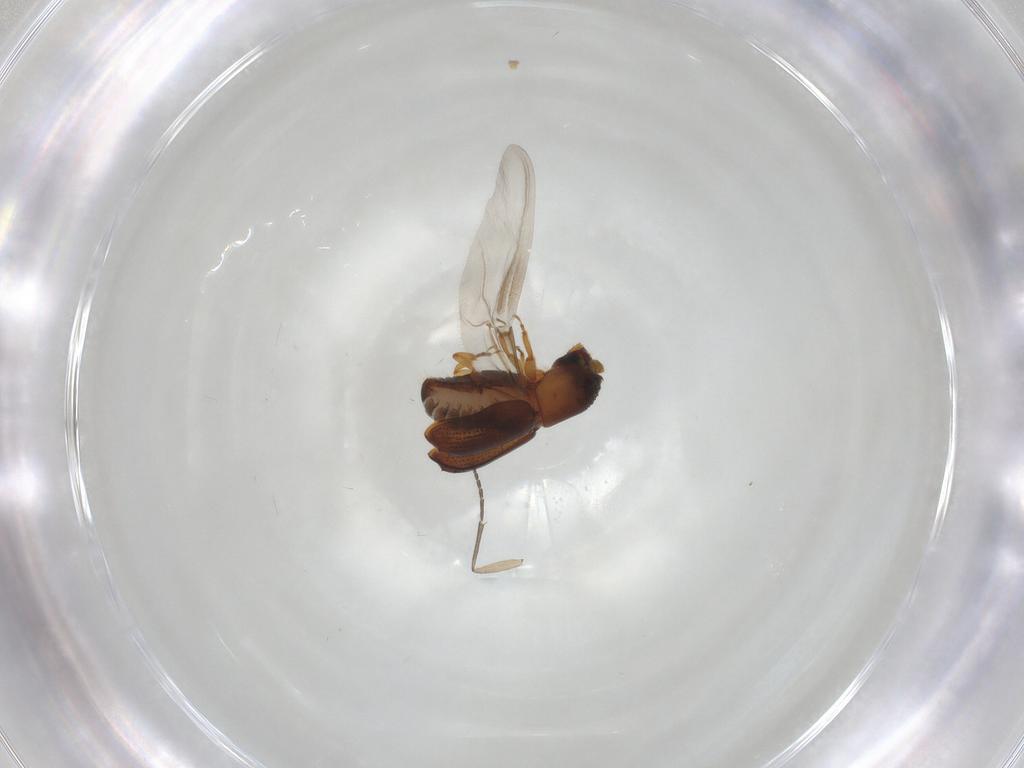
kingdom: Animalia
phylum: Arthropoda
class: Insecta
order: Coleoptera
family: Curculionidae
